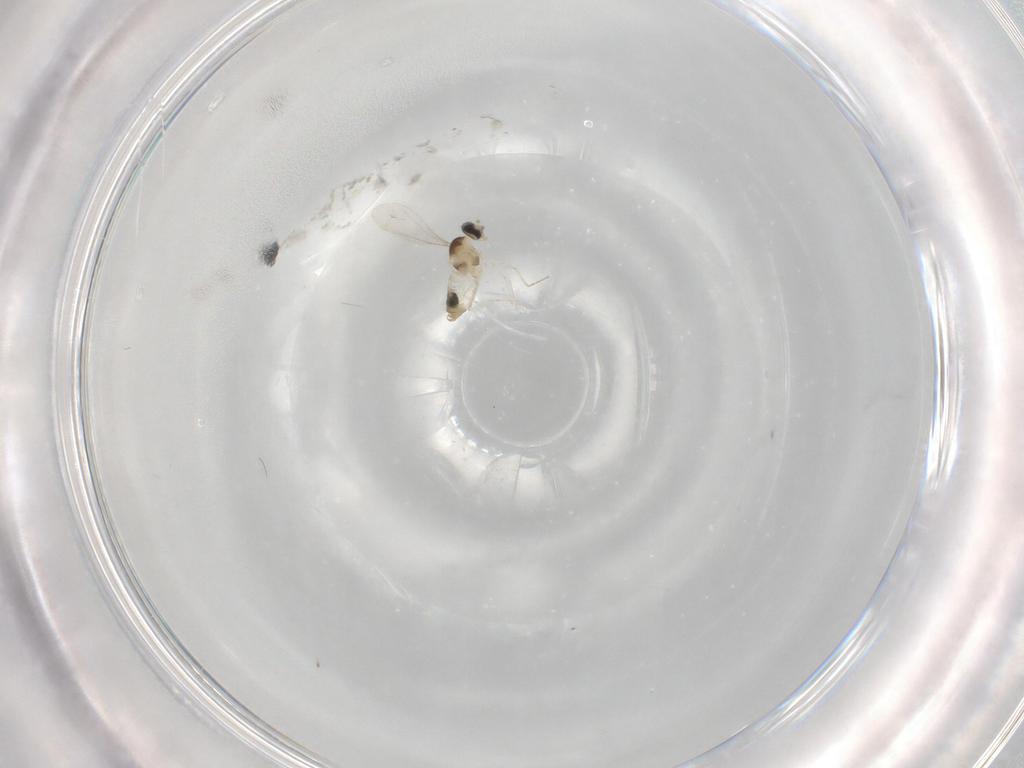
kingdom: Animalia
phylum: Arthropoda
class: Insecta
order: Diptera
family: Cecidomyiidae
